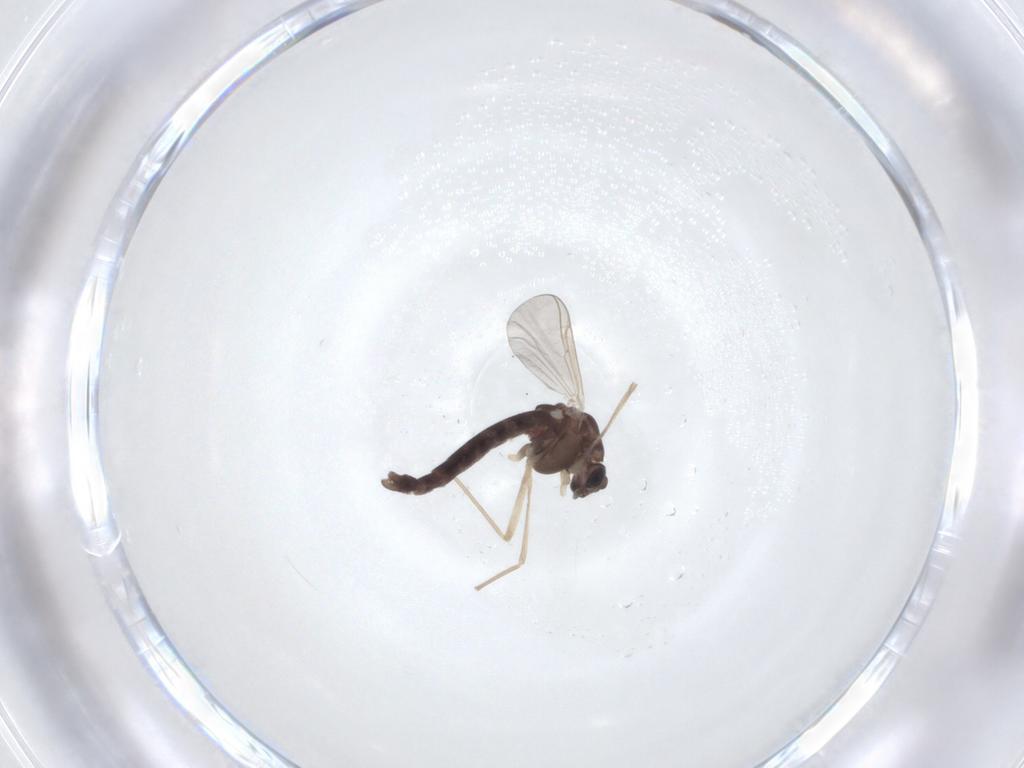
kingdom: Animalia
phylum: Arthropoda
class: Insecta
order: Diptera
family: Chironomidae
